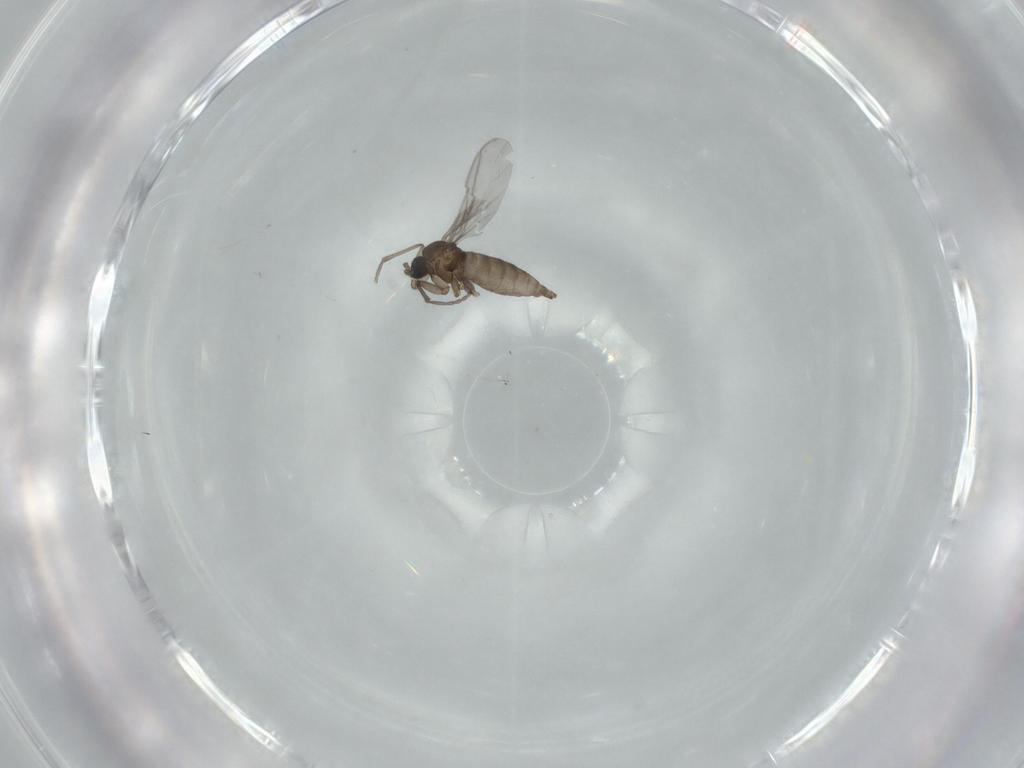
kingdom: Animalia
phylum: Arthropoda
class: Insecta
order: Diptera
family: Sciaridae
